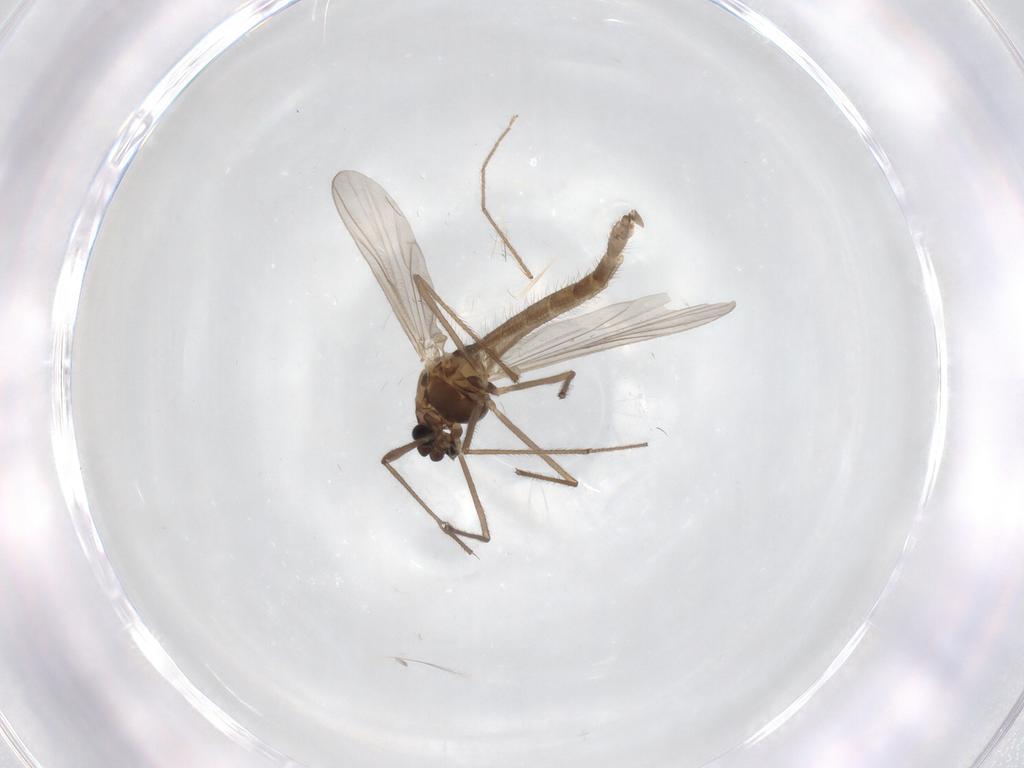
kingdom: Animalia
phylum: Arthropoda
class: Insecta
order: Diptera
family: Chironomidae
